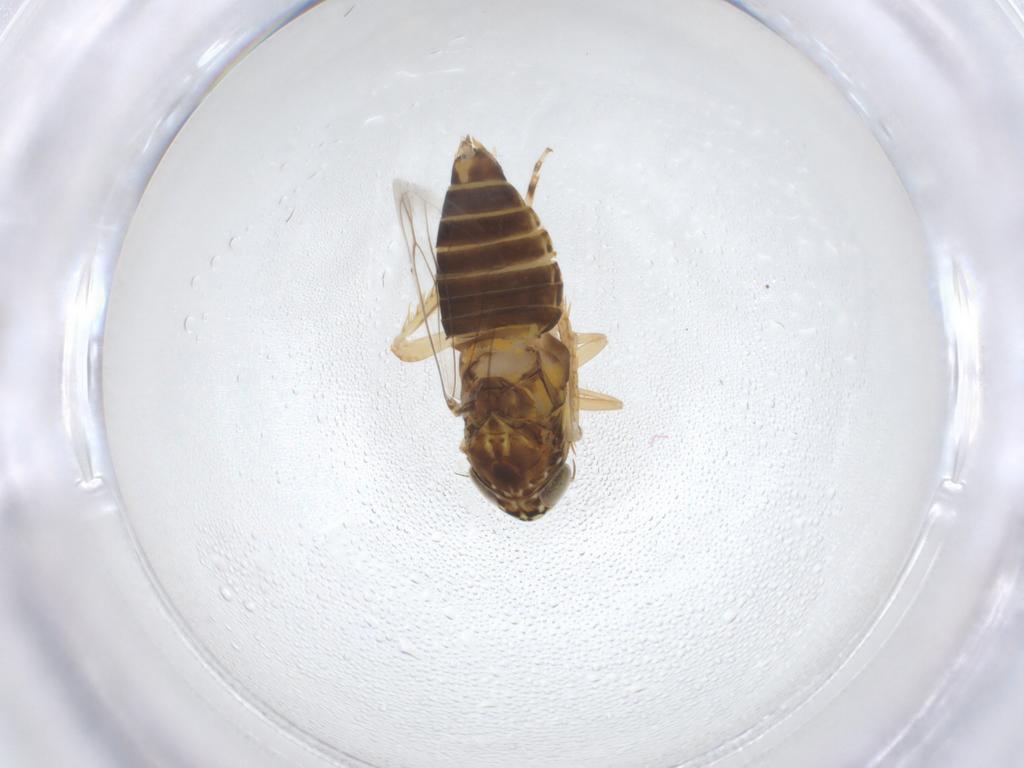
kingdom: Animalia
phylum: Arthropoda
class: Insecta
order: Hemiptera
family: Cicadellidae
